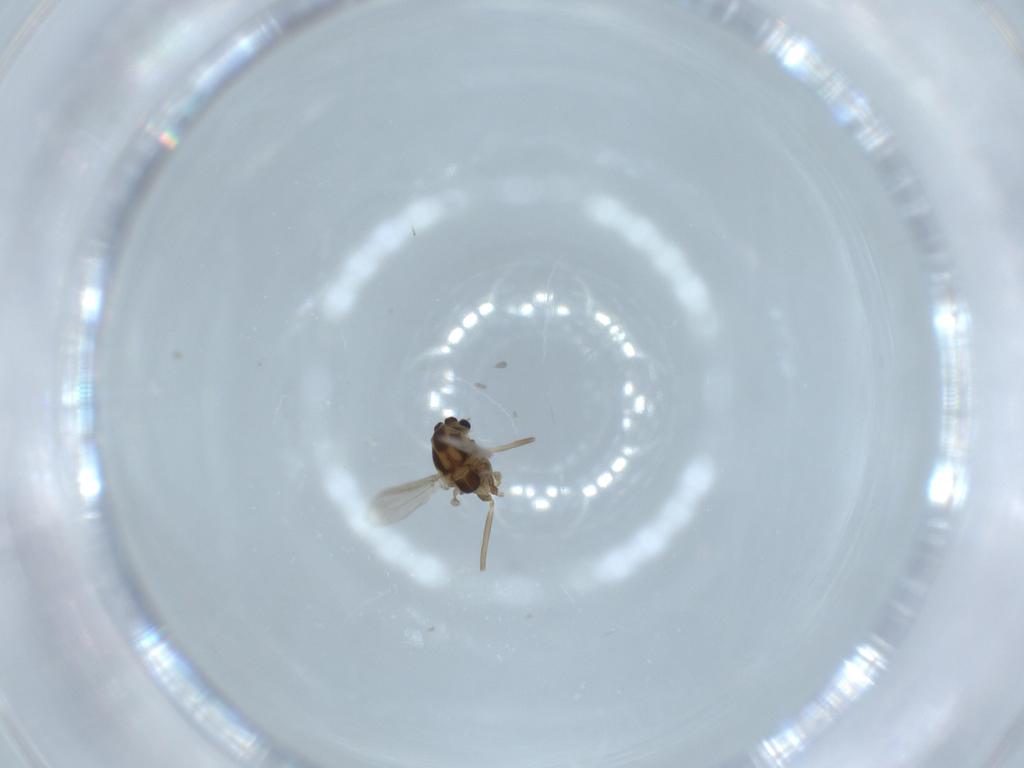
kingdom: Animalia
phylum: Arthropoda
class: Insecta
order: Diptera
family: Chironomidae
